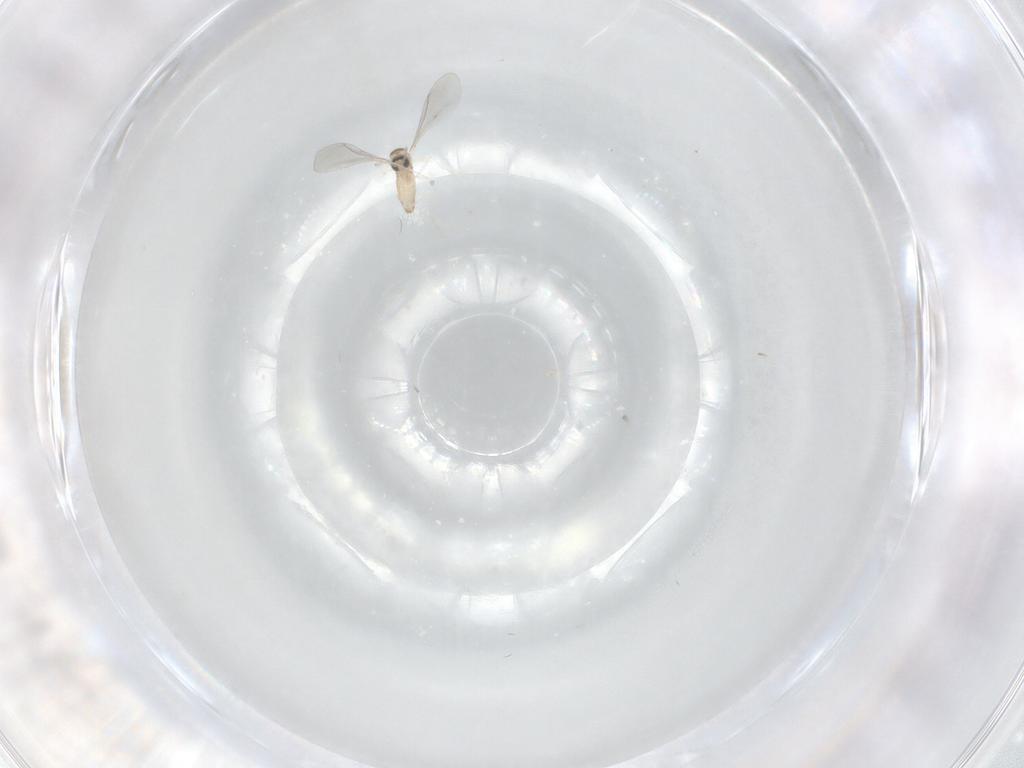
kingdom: Animalia
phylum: Arthropoda
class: Insecta
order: Diptera
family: Cecidomyiidae
